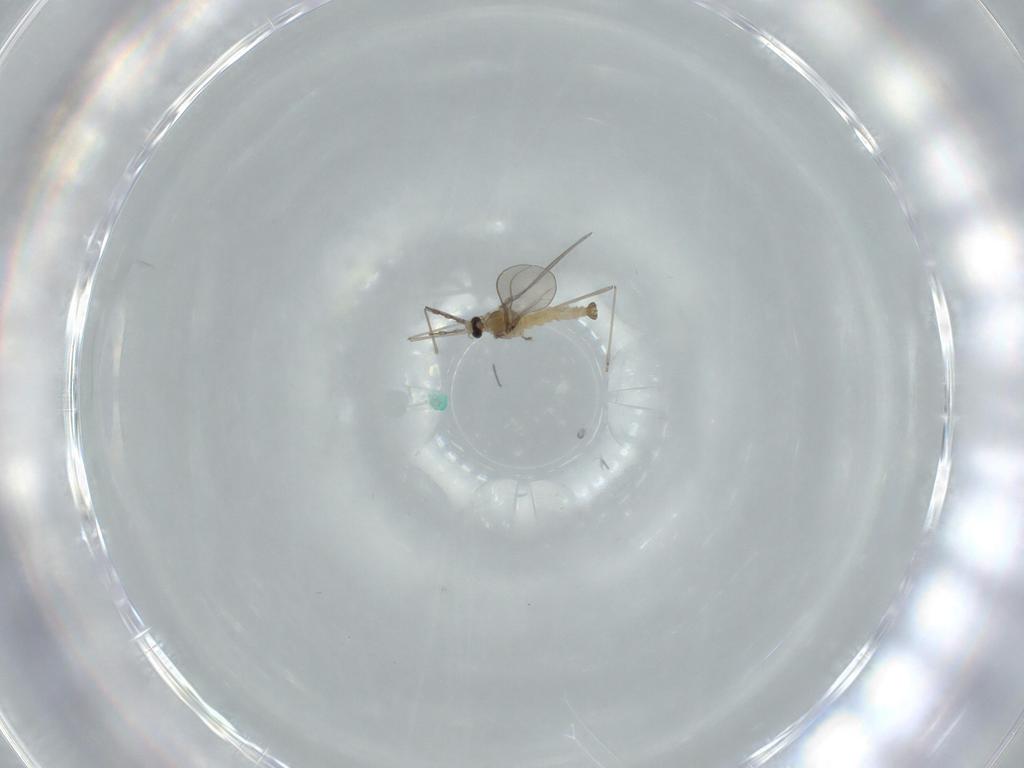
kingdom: Animalia
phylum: Arthropoda
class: Insecta
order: Diptera
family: Cecidomyiidae
